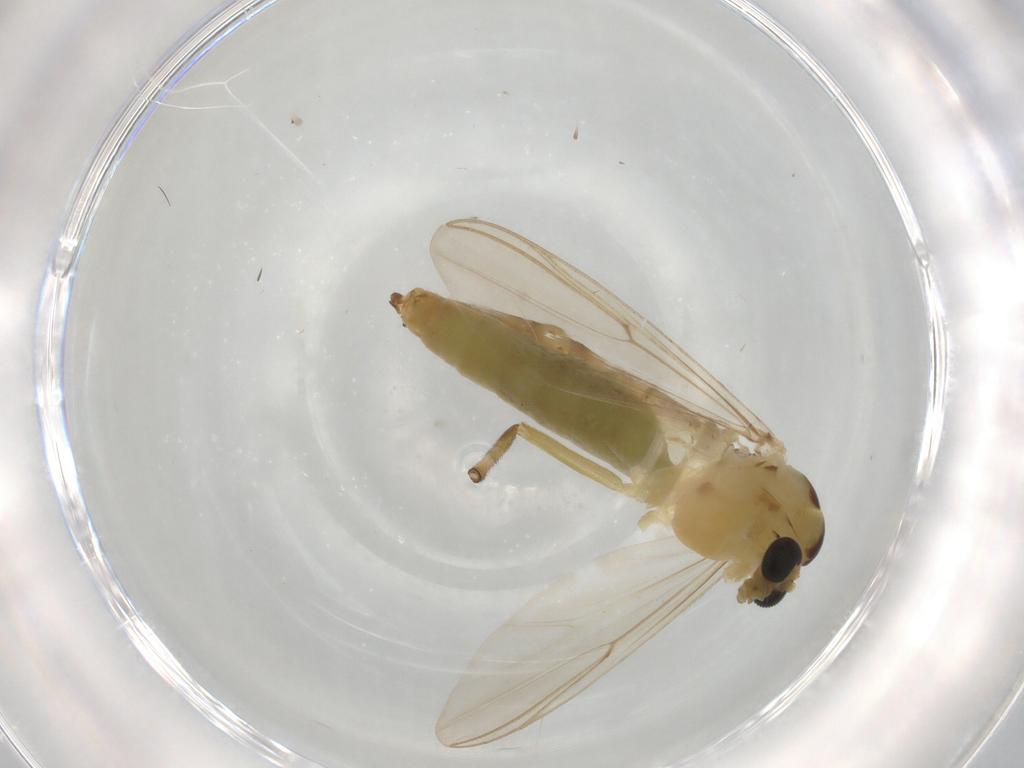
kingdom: Animalia
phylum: Arthropoda
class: Insecta
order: Diptera
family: Chironomidae
